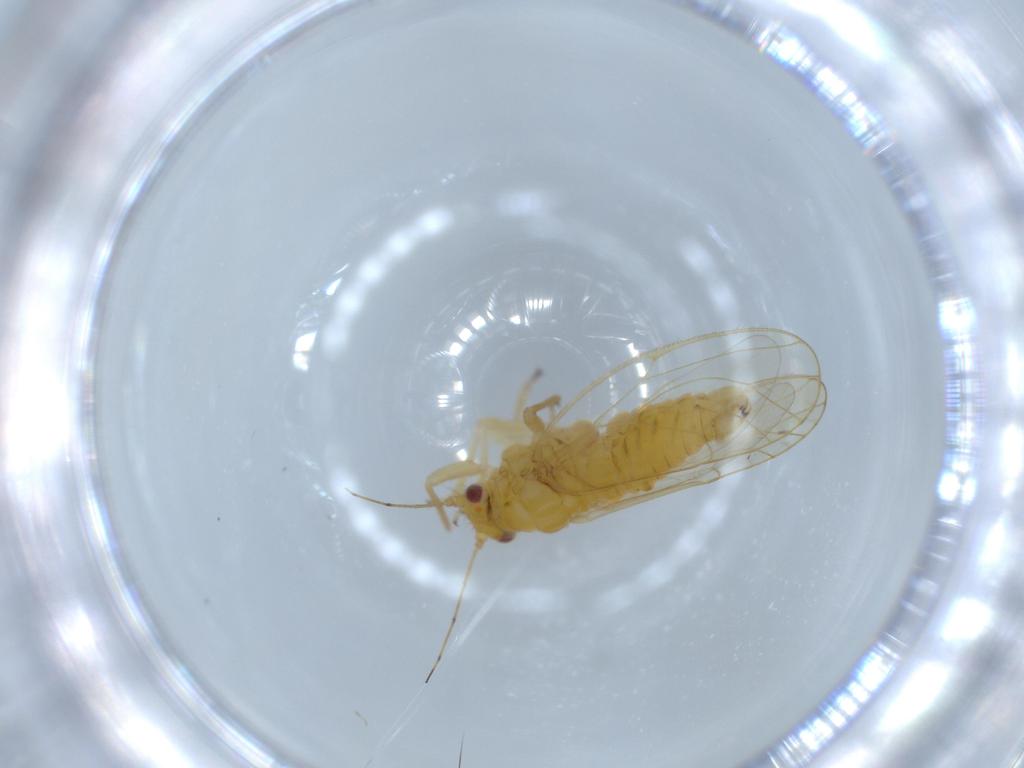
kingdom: Animalia
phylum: Arthropoda
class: Insecta
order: Hemiptera
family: Psyllidae
